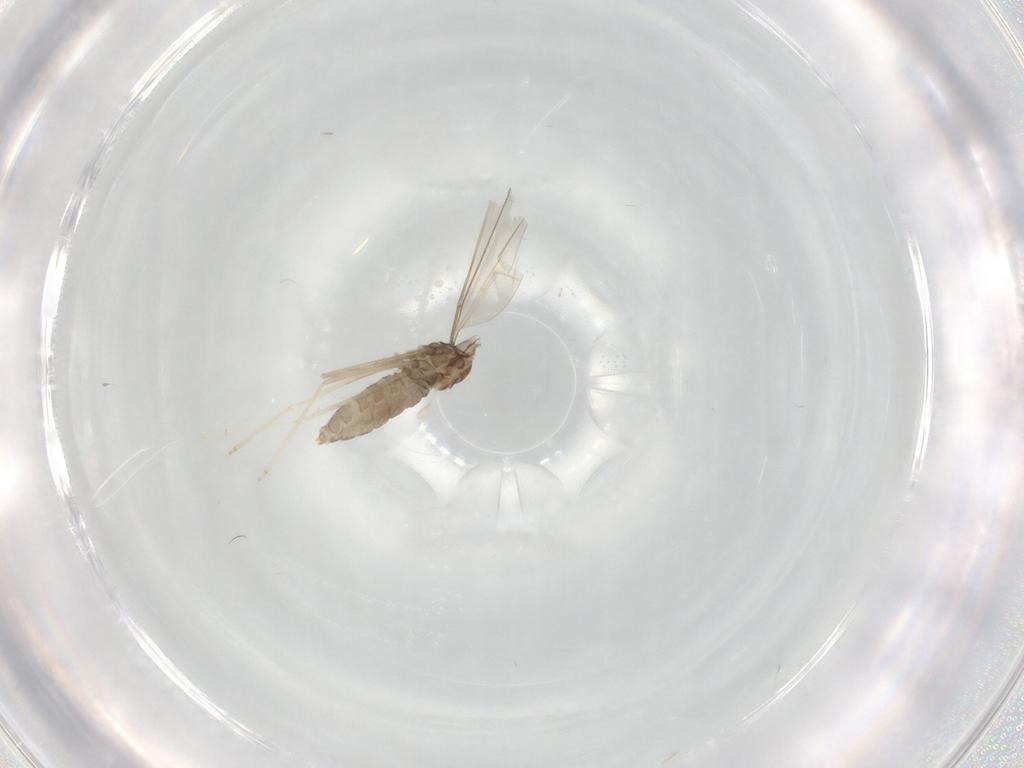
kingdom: Animalia
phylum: Arthropoda
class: Insecta
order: Diptera
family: Cecidomyiidae
